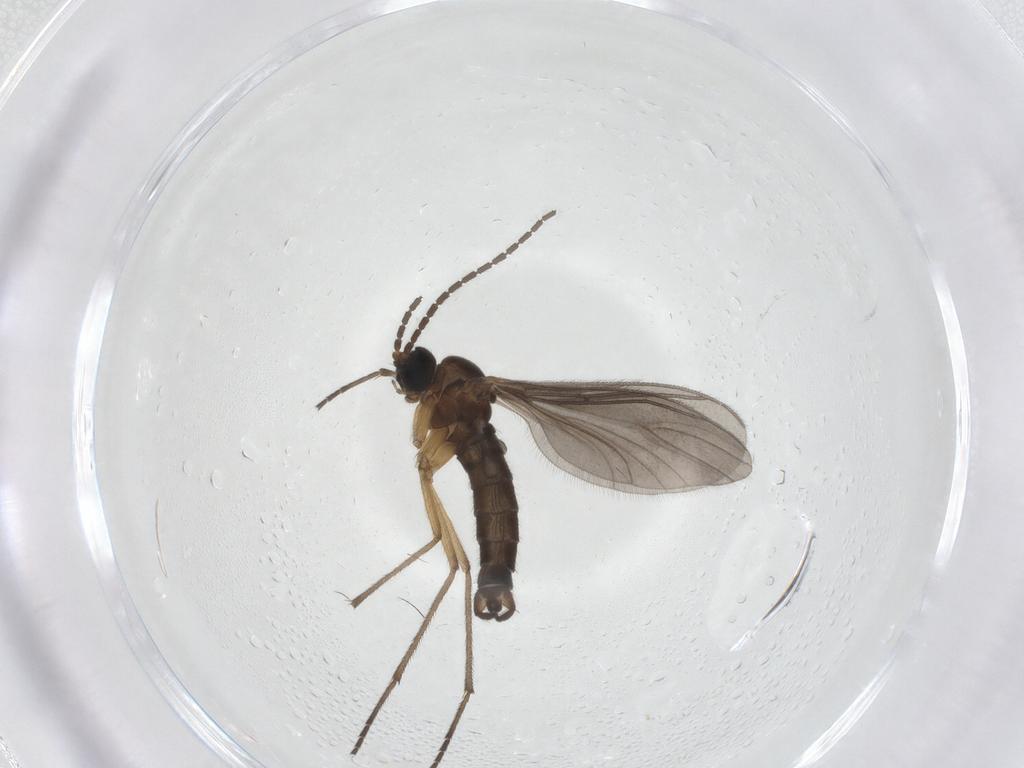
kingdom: Animalia
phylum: Arthropoda
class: Insecta
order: Diptera
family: Sciaridae
